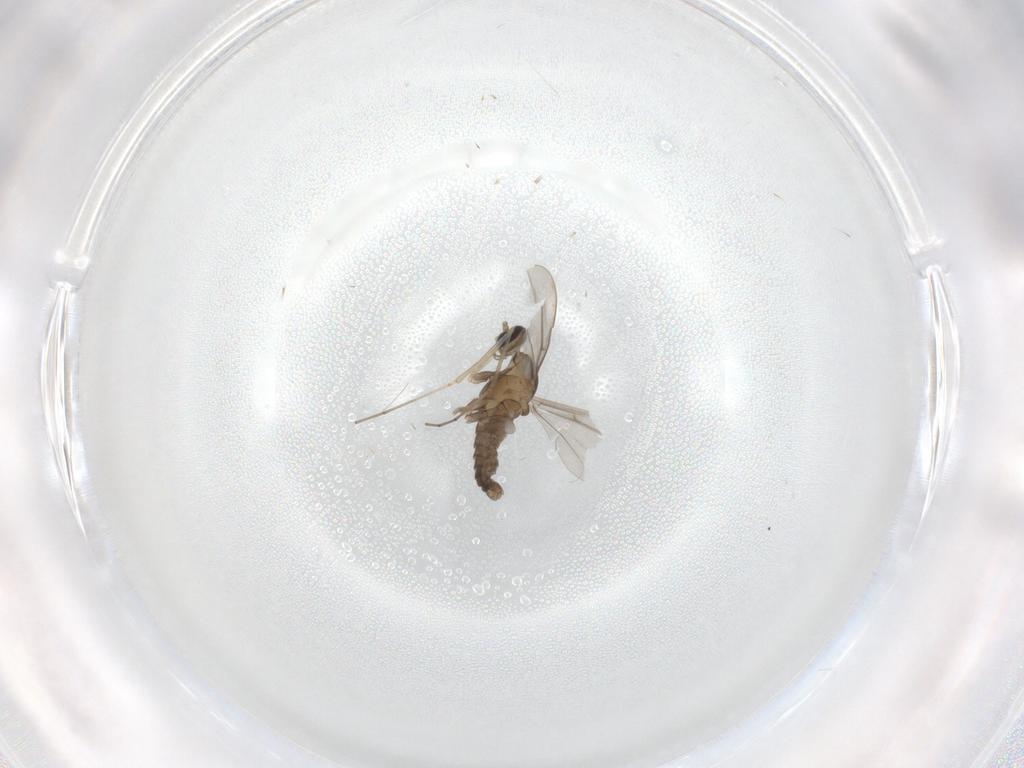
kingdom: Animalia
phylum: Arthropoda
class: Insecta
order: Diptera
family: Cecidomyiidae
